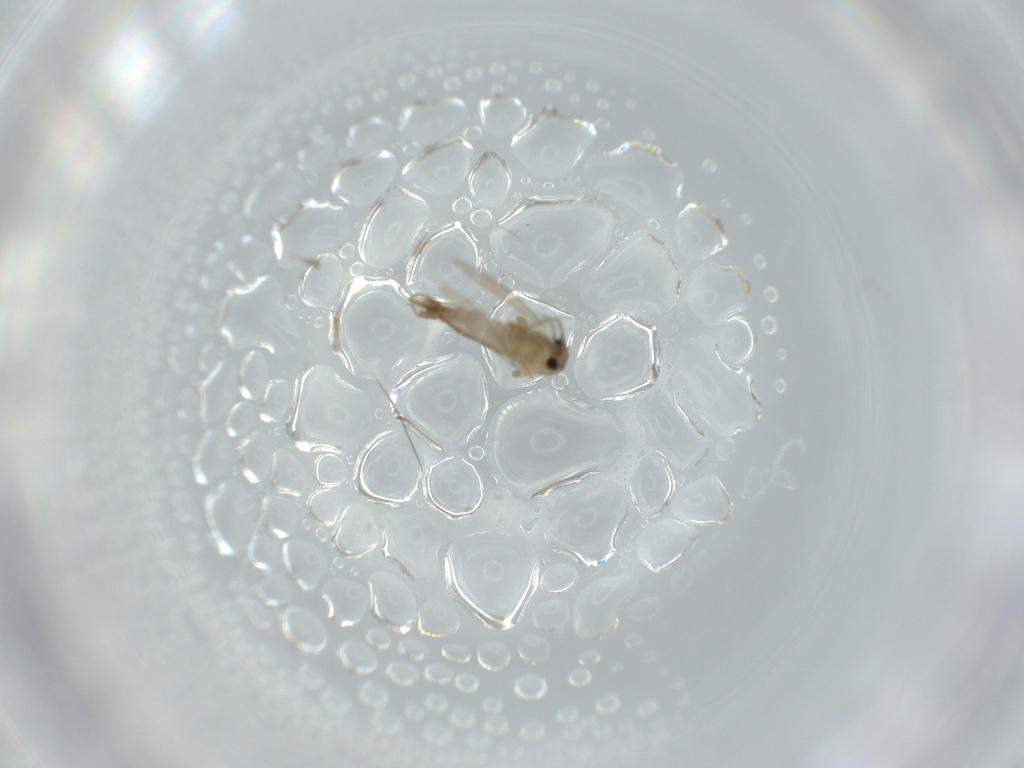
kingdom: Animalia
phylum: Arthropoda
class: Insecta
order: Diptera
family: Psychodidae
